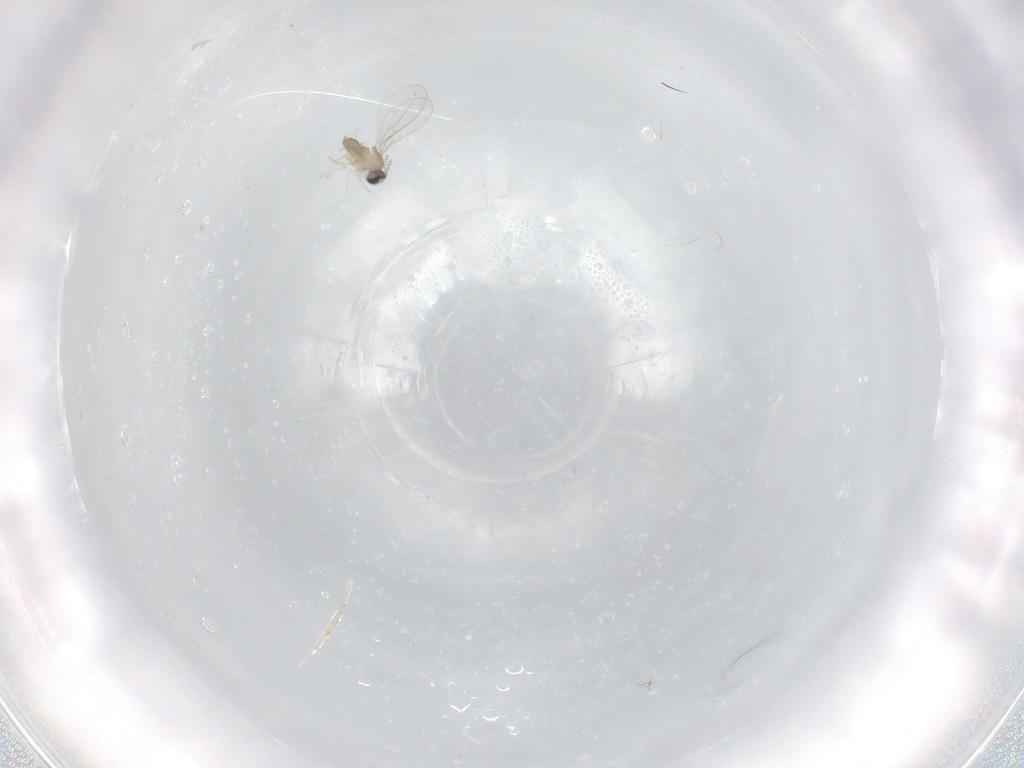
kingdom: Animalia
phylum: Arthropoda
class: Insecta
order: Diptera
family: Cecidomyiidae
